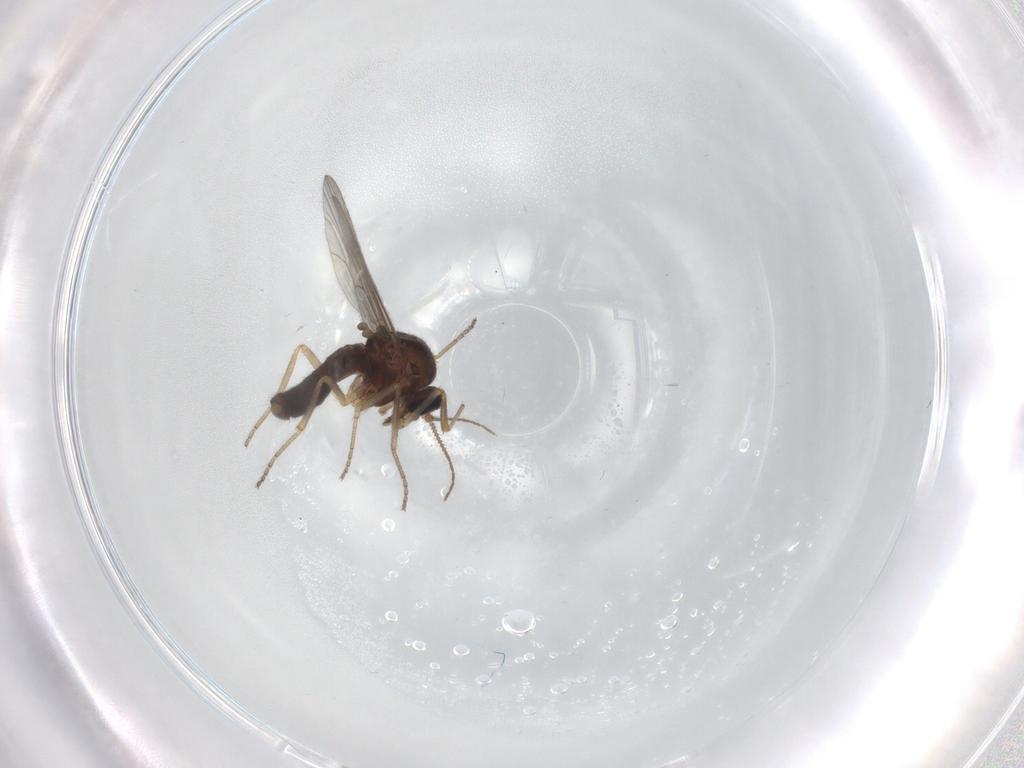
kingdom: Animalia
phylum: Arthropoda
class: Insecta
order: Diptera
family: Ceratopogonidae
